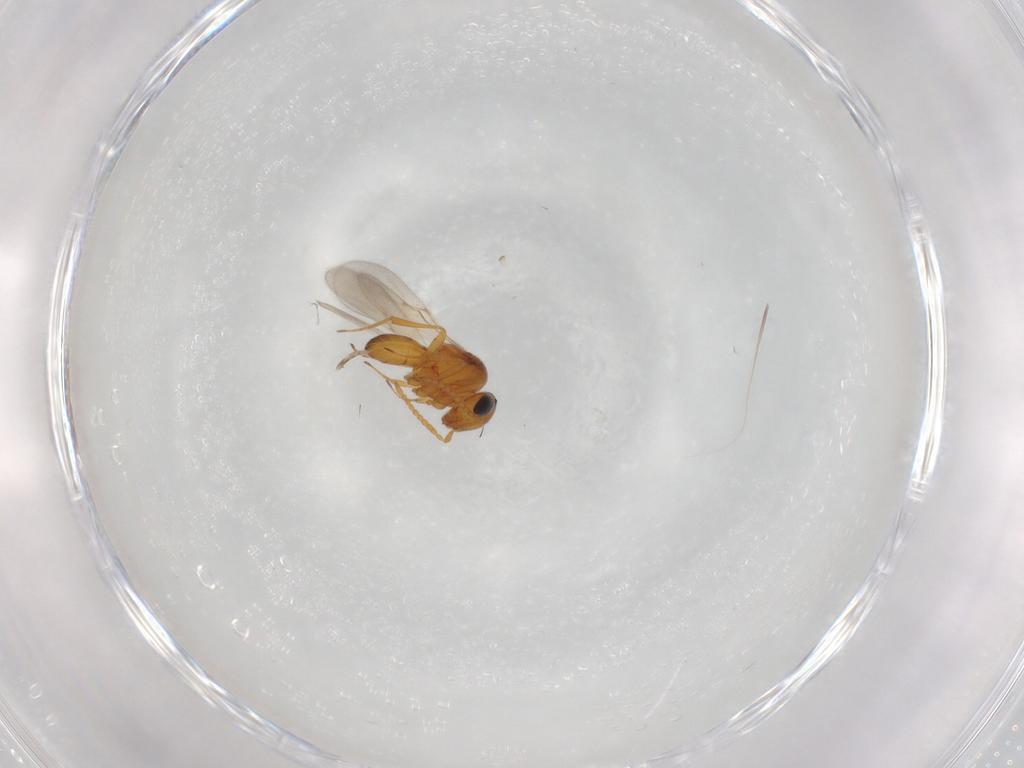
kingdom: Animalia
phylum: Arthropoda
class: Insecta
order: Hymenoptera
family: Scelionidae
